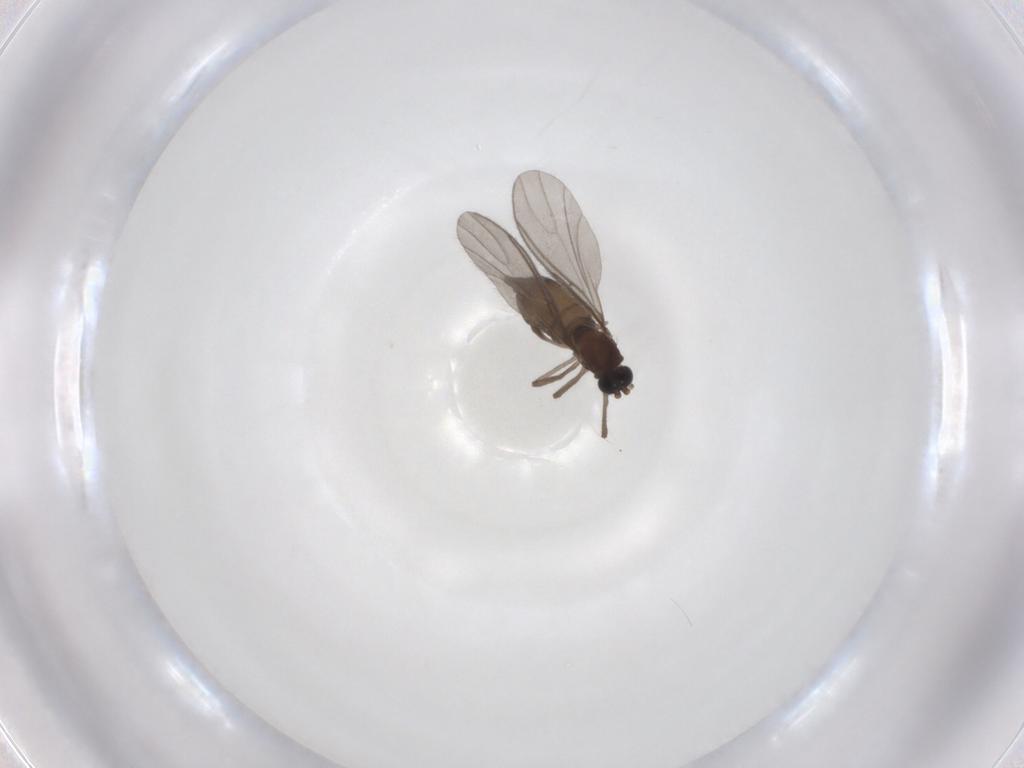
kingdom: Animalia
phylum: Arthropoda
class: Insecta
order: Diptera
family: Sciaridae
